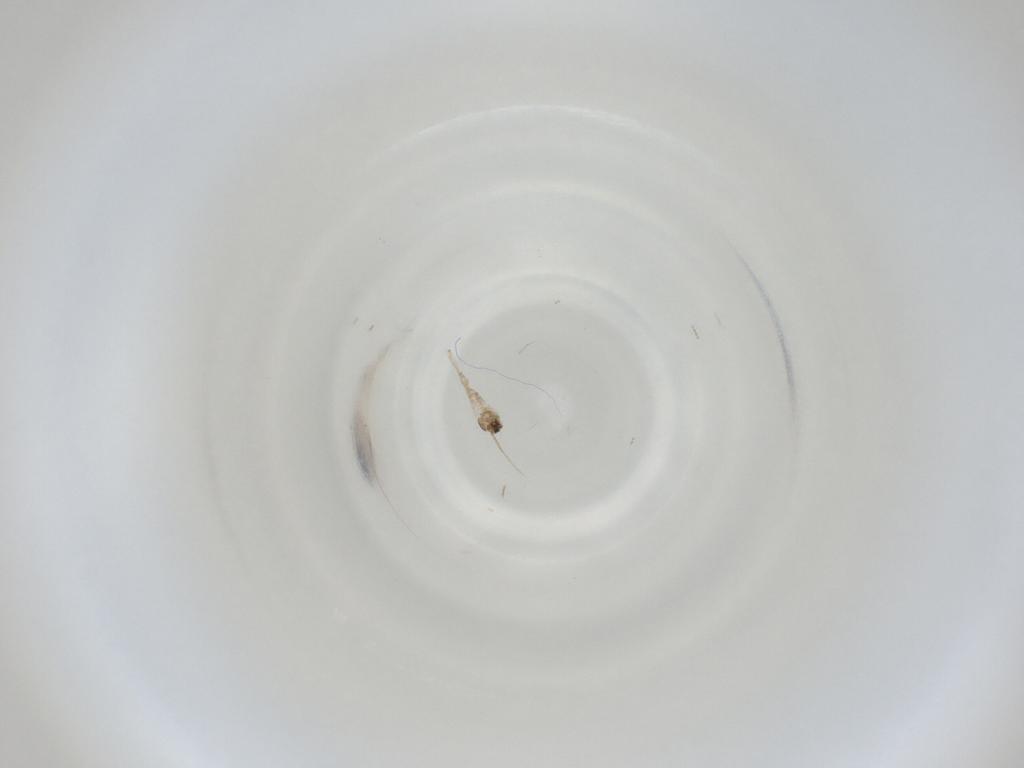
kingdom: Animalia
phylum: Arthropoda
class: Insecta
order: Diptera
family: Cecidomyiidae
